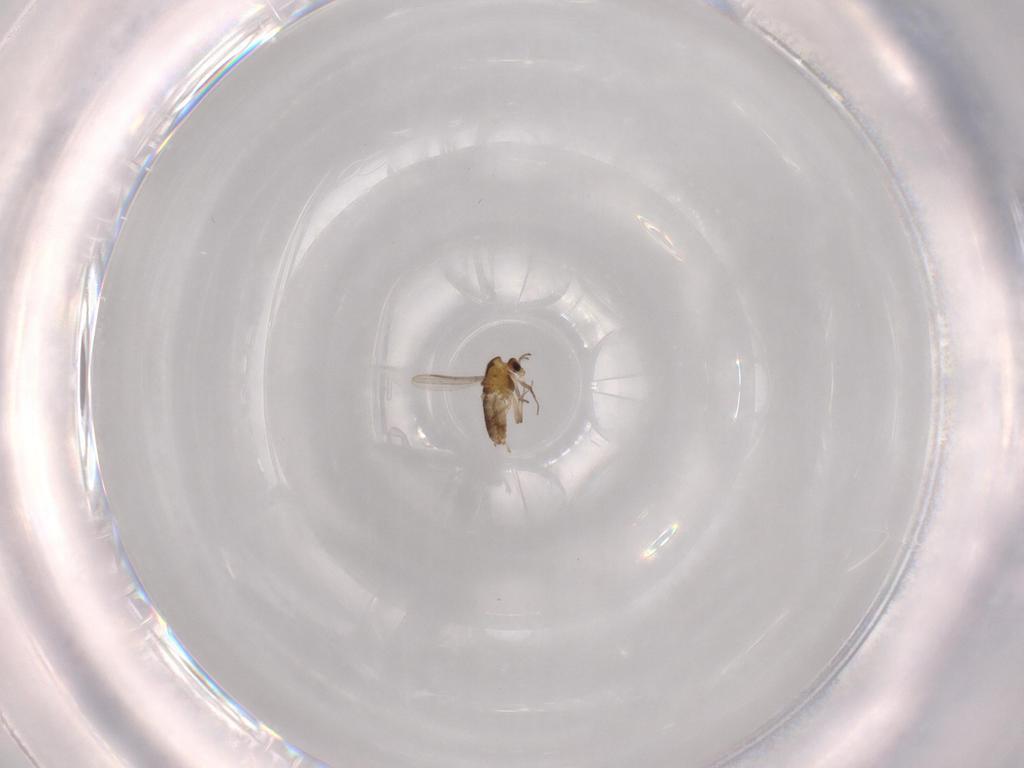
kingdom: Animalia
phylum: Arthropoda
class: Insecta
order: Diptera
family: Chironomidae
